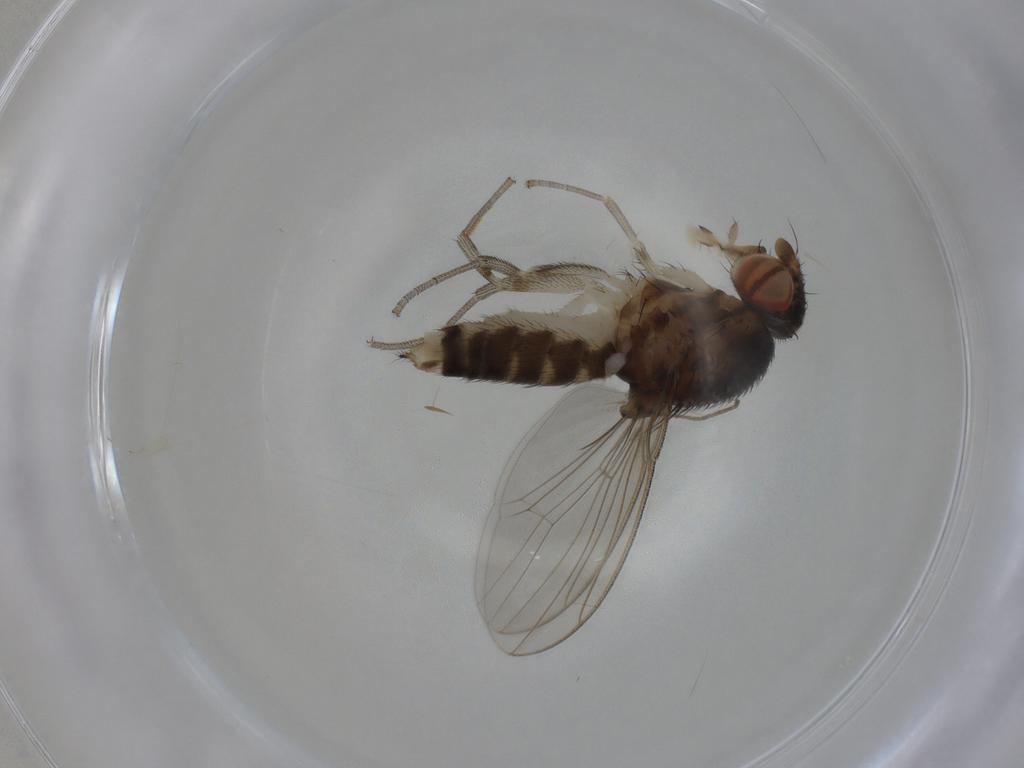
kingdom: Animalia
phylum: Arthropoda
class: Insecta
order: Diptera
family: Drosophilidae
